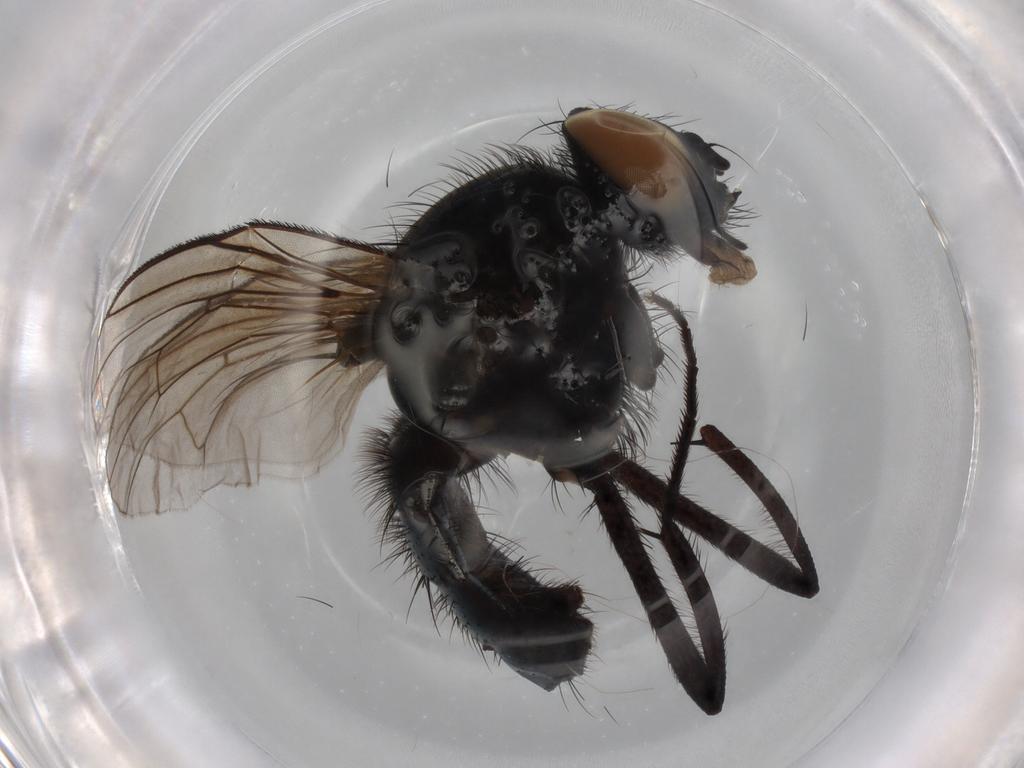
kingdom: Animalia
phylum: Arthropoda
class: Insecta
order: Diptera
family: Muscidae
